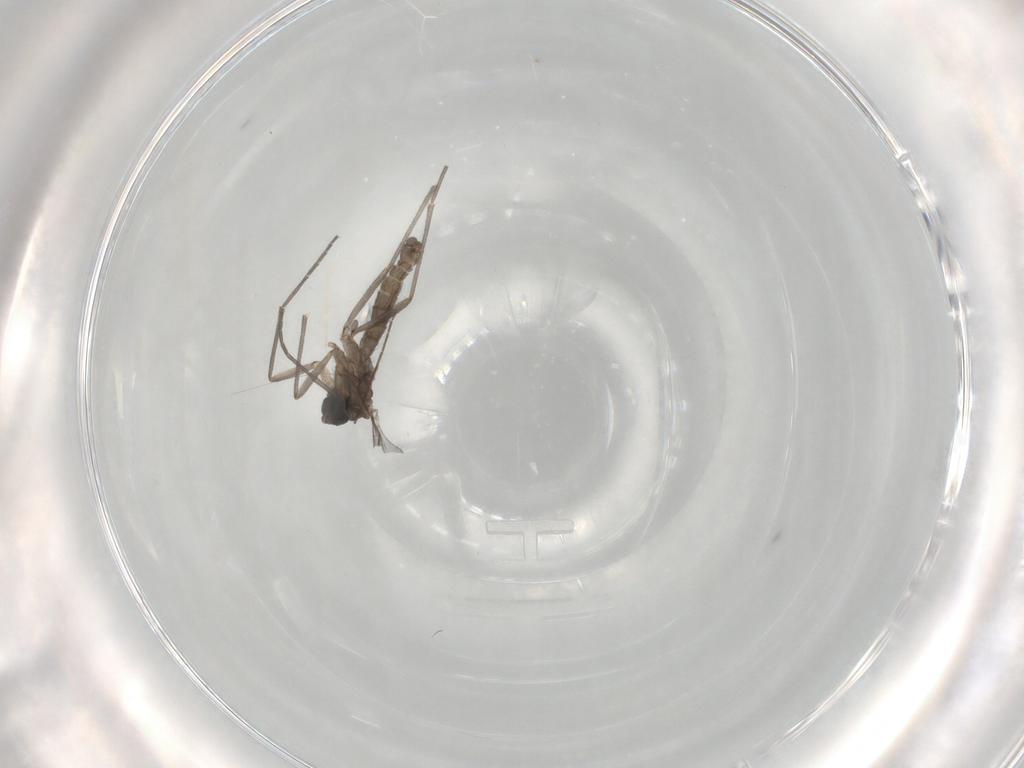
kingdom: Animalia
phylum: Arthropoda
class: Insecta
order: Diptera
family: Sciaridae
